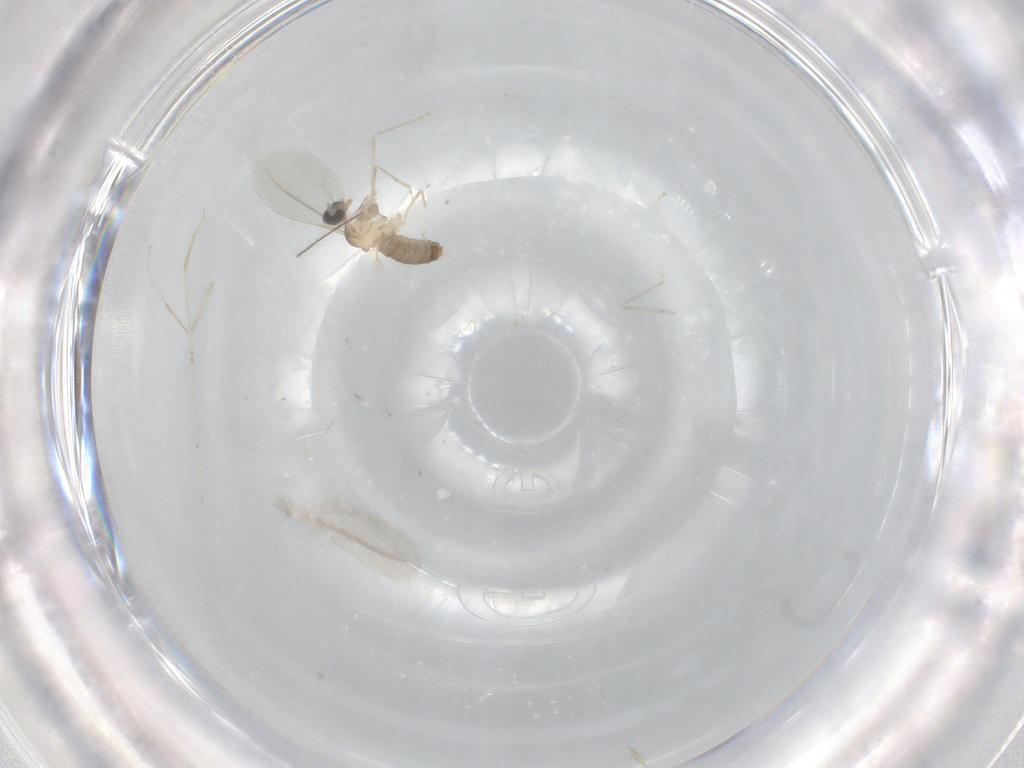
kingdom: Animalia
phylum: Arthropoda
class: Insecta
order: Diptera
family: Cecidomyiidae
